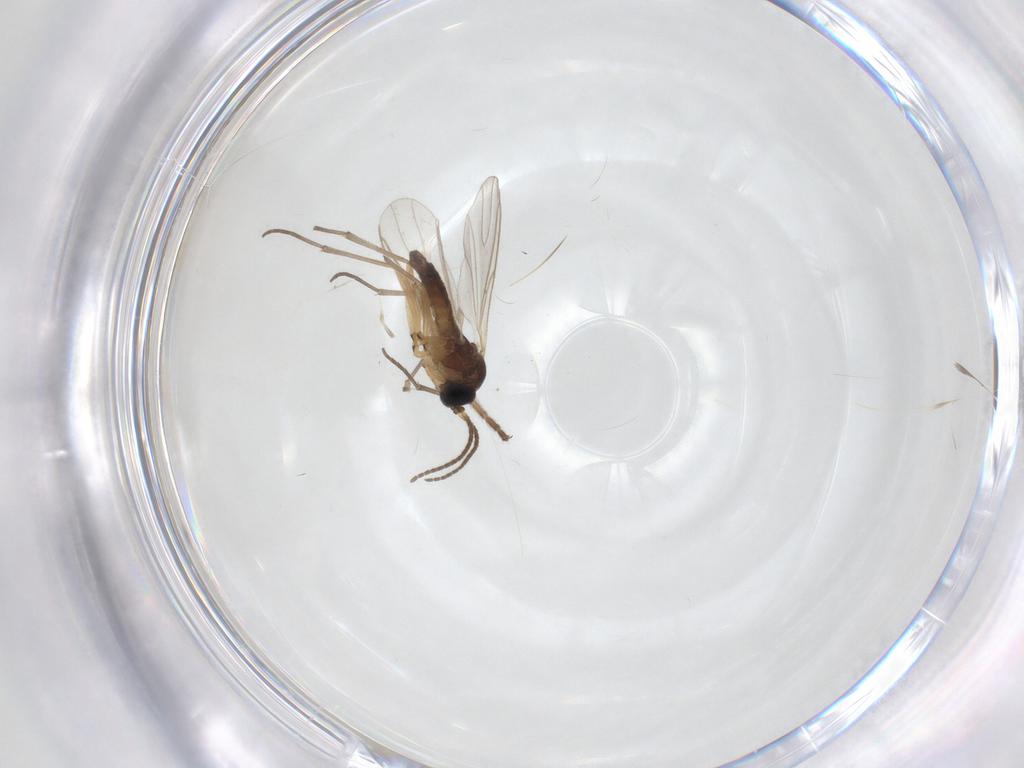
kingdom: Animalia
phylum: Arthropoda
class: Insecta
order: Diptera
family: Sciaridae
